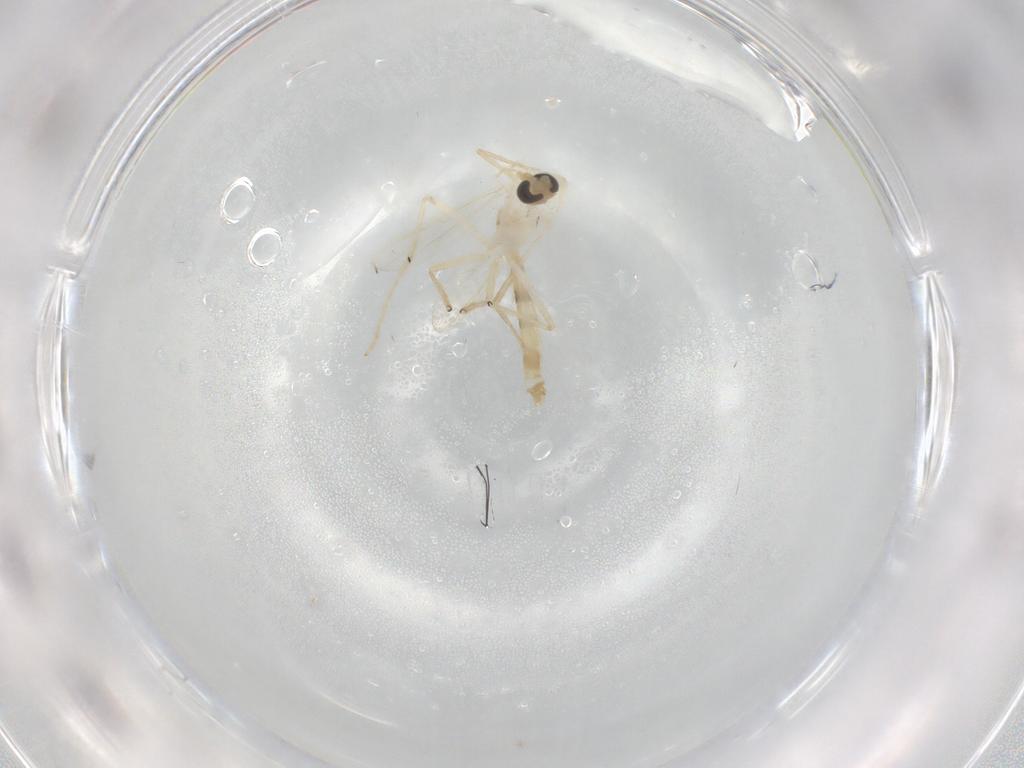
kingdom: Animalia
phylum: Arthropoda
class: Insecta
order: Diptera
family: Chironomidae
